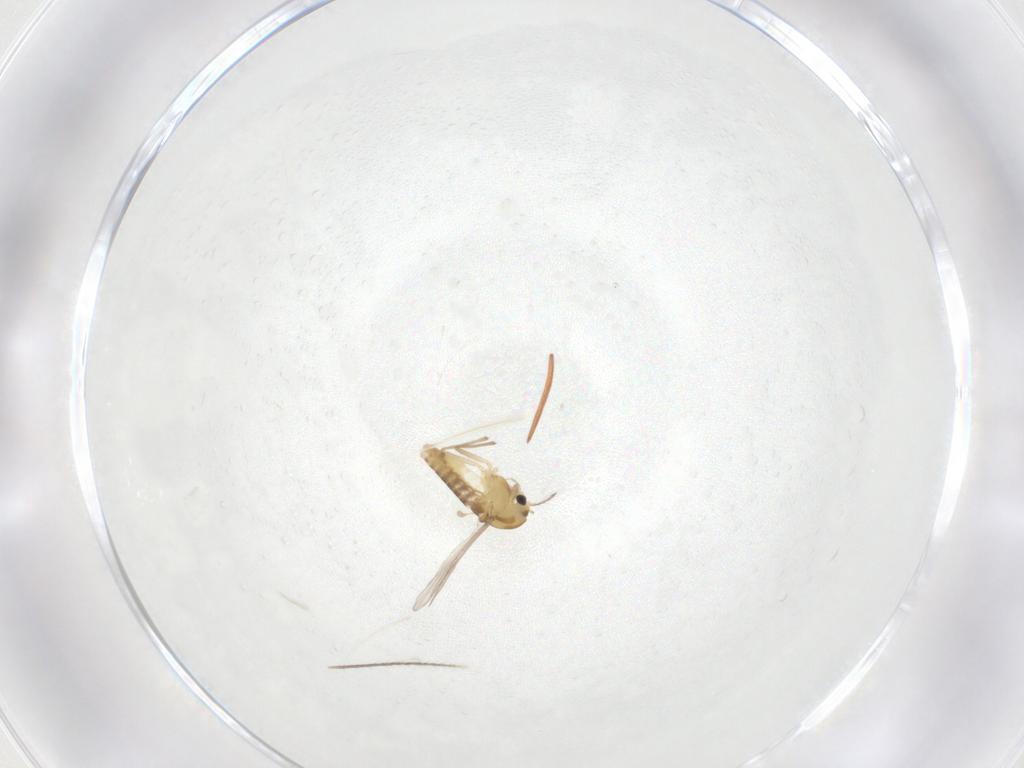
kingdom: Animalia
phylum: Arthropoda
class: Insecta
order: Diptera
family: Chironomidae
